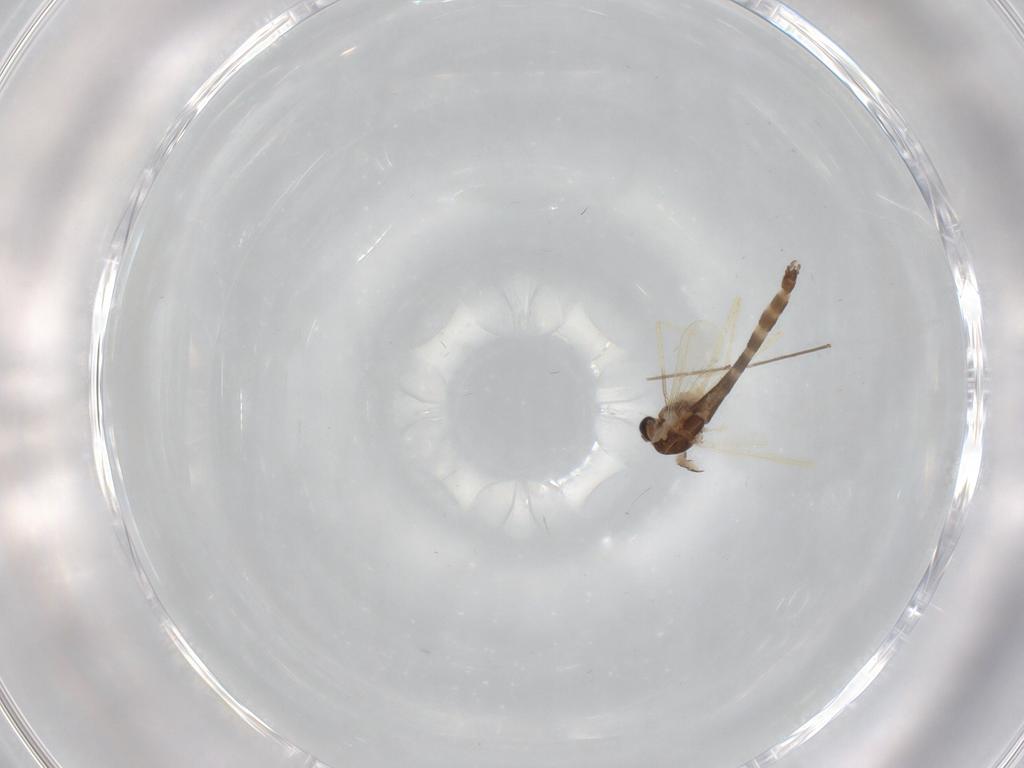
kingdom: Animalia
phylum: Arthropoda
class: Insecta
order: Diptera
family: Chironomidae
